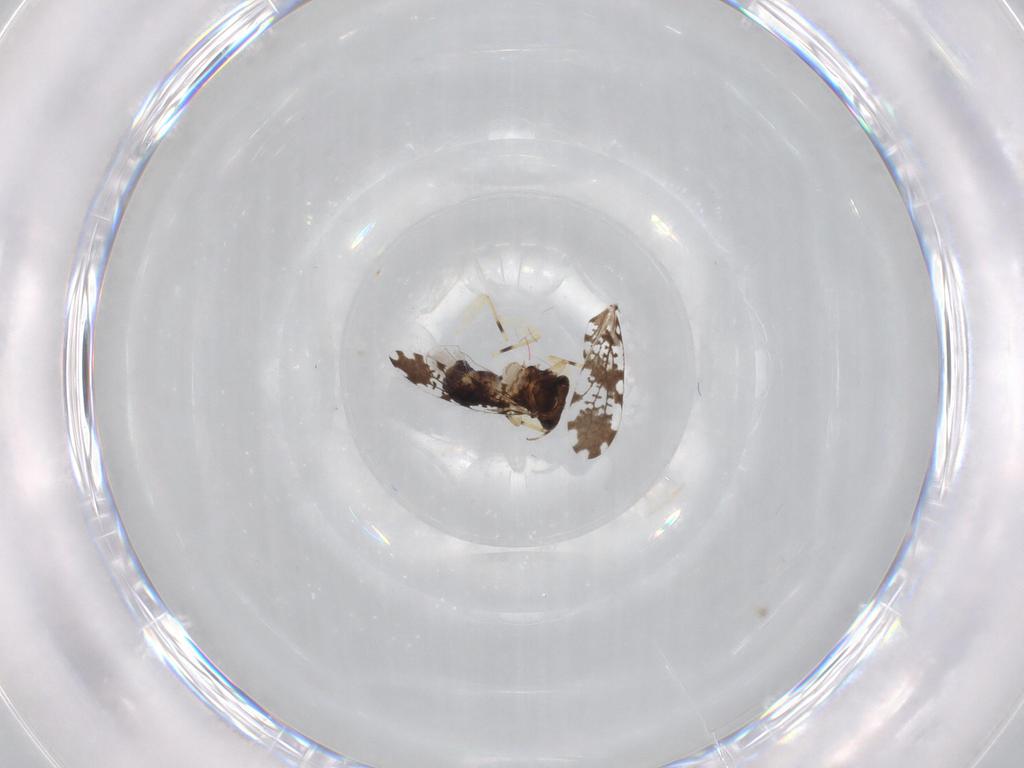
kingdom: Animalia
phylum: Arthropoda
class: Insecta
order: Psocodea
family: Psoquillidae
